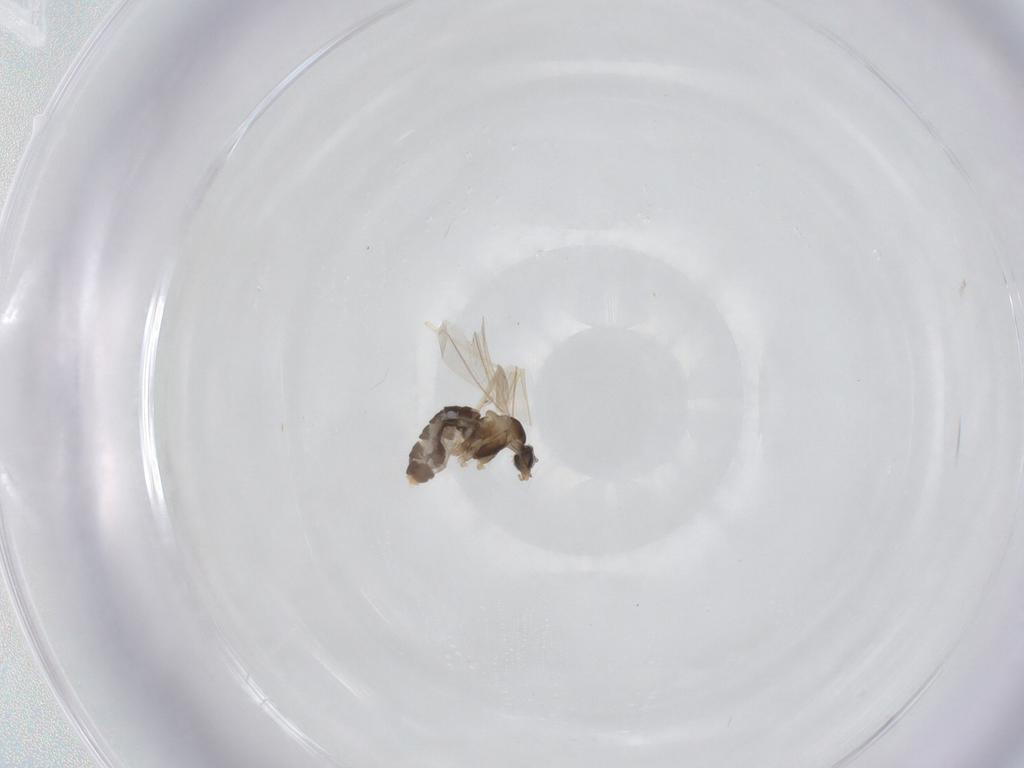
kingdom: Animalia
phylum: Arthropoda
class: Insecta
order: Diptera
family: Cecidomyiidae
